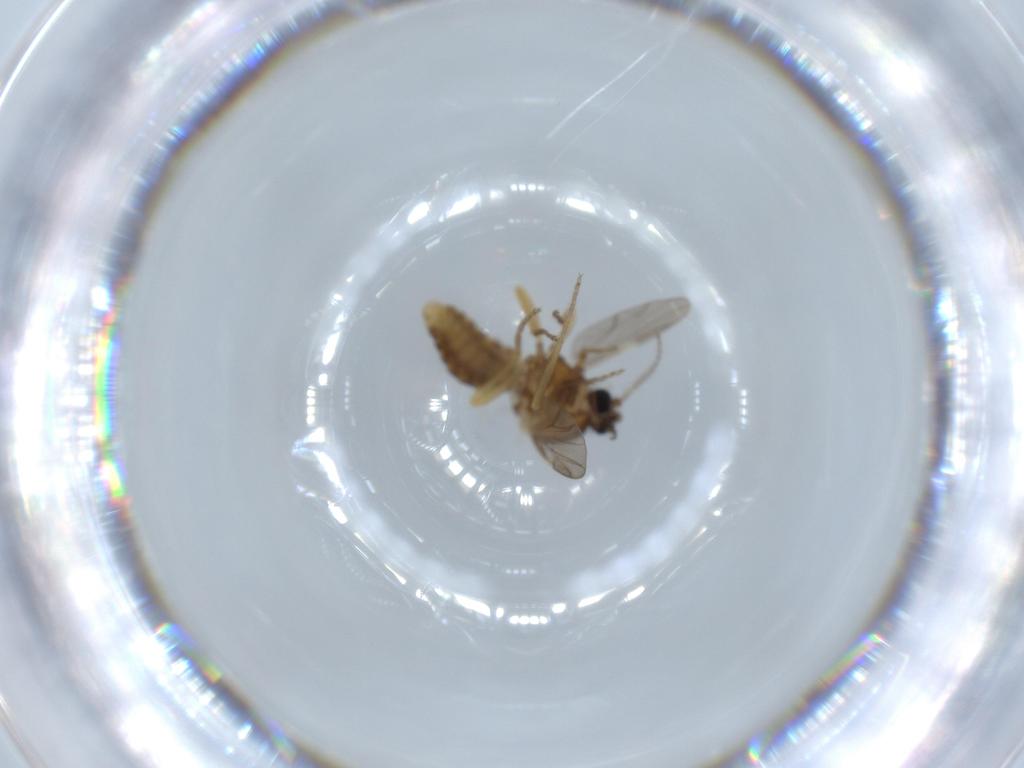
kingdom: Animalia
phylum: Arthropoda
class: Insecta
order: Diptera
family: Ceratopogonidae
